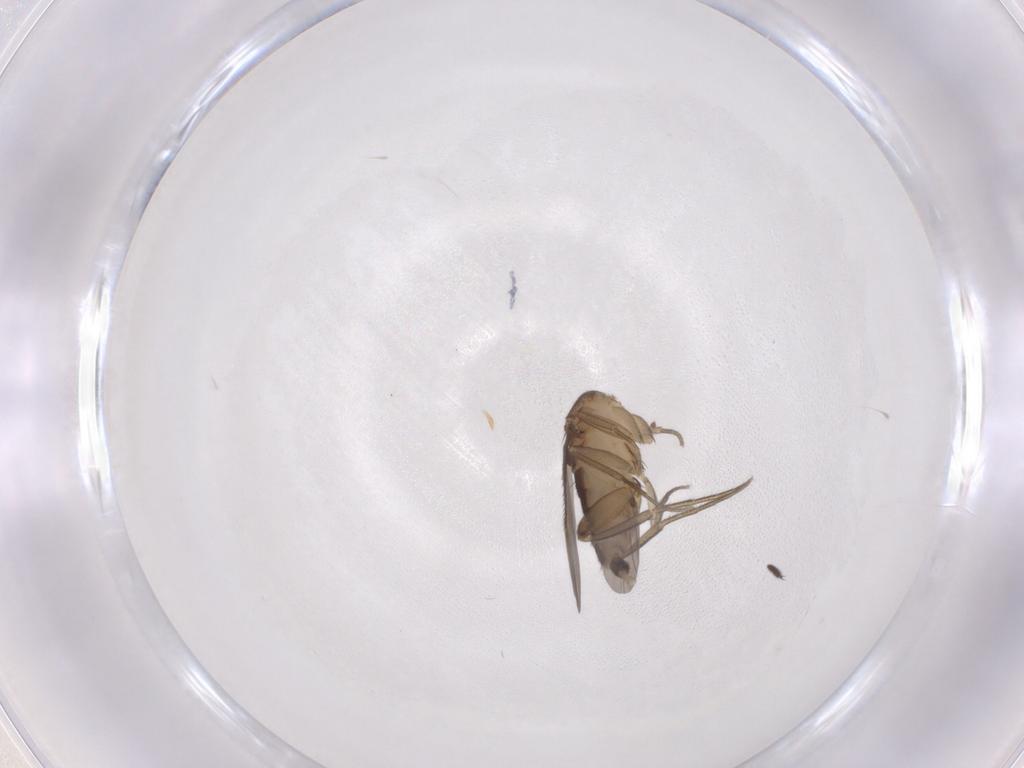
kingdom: Animalia
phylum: Arthropoda
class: Insecta
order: Diptera
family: Phoridae
